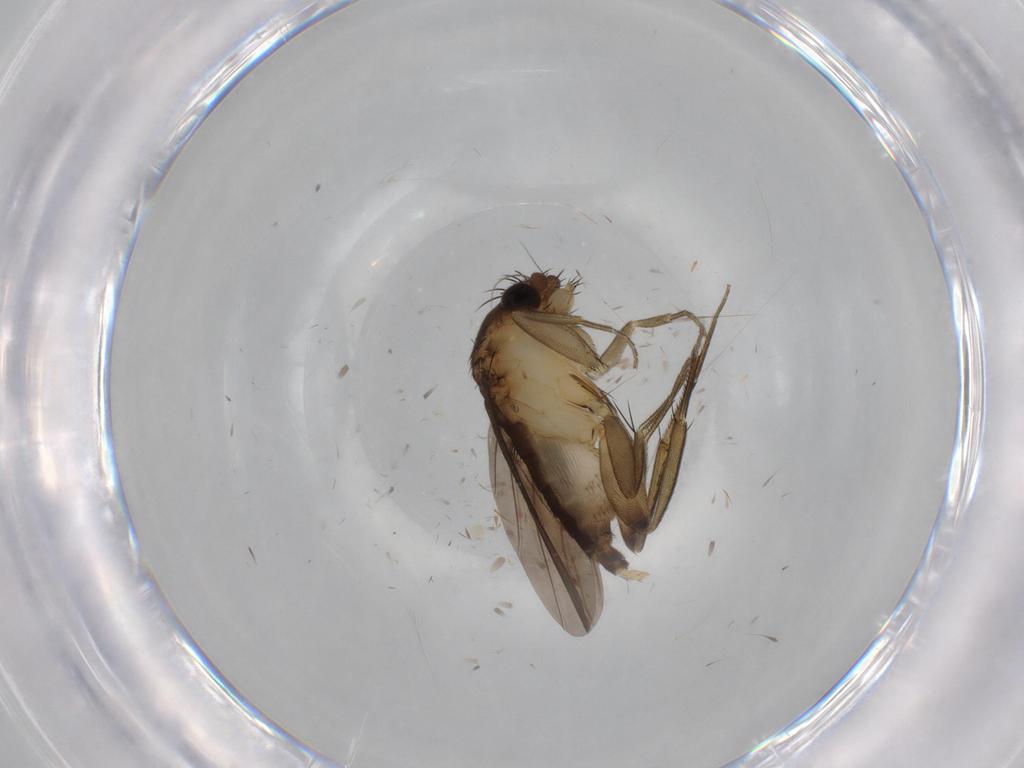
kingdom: Animalia
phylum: Arthropoda
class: Insecta
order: Diptera
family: Phoridae
